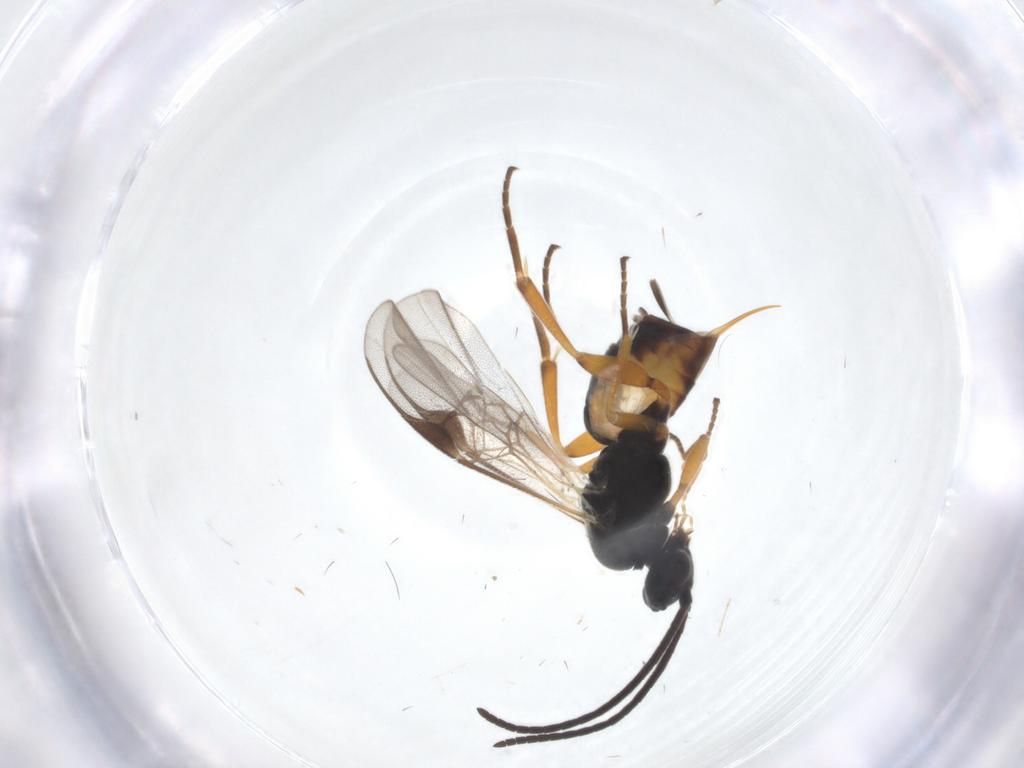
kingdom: Animalia
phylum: Arthropoda
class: Insecta
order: Hymenoptera
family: Braconidae
